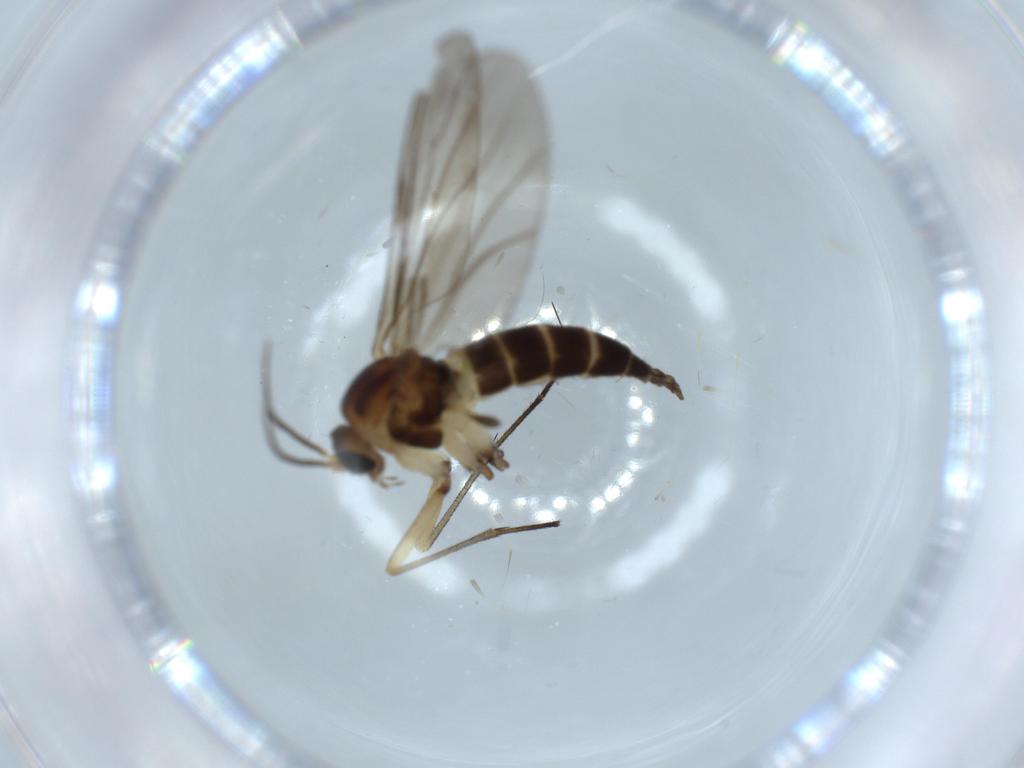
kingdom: Animalia
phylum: Arthropoda
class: Insecta
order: Diptera
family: Sciaridae
